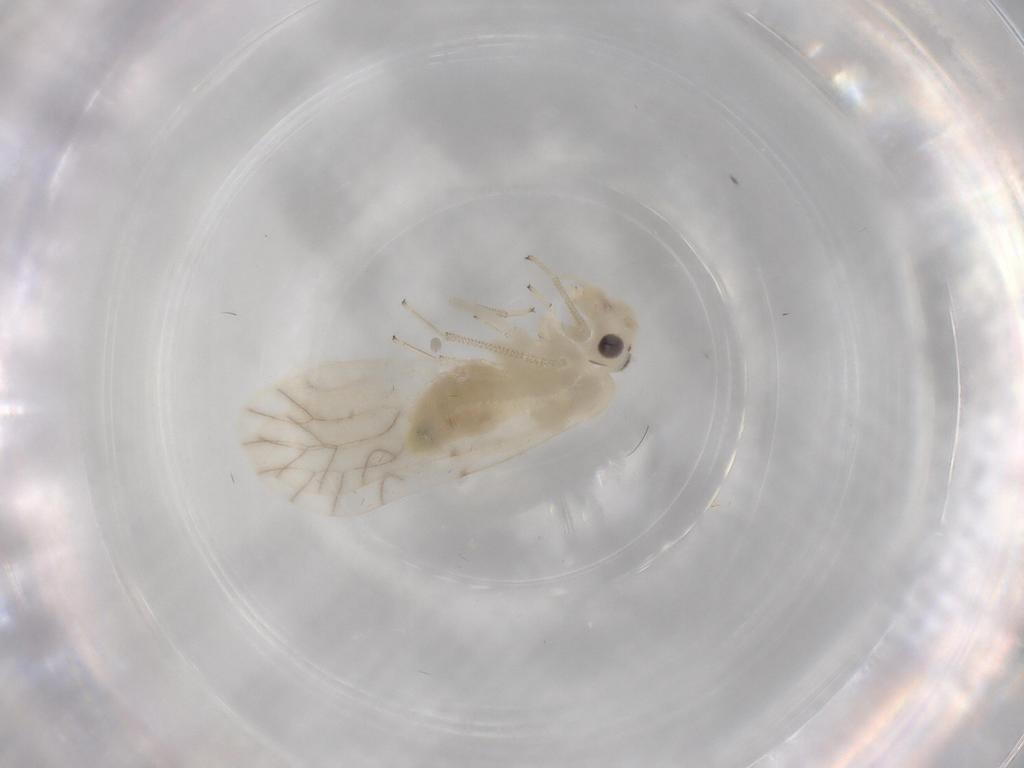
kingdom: Animalia
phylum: Arthropoda
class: Insecta
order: Psocodea
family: Caeciliusidae
